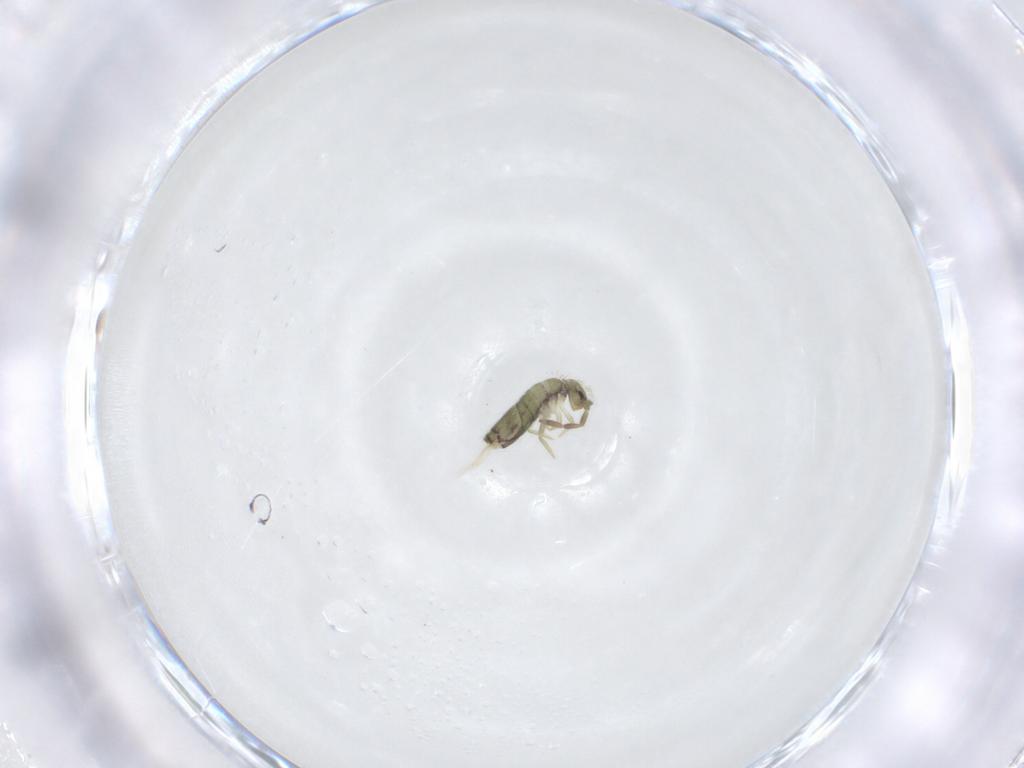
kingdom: Animalia
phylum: Arthropoda
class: Collembola
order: Entomobryomorpha
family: Entomobryidae
